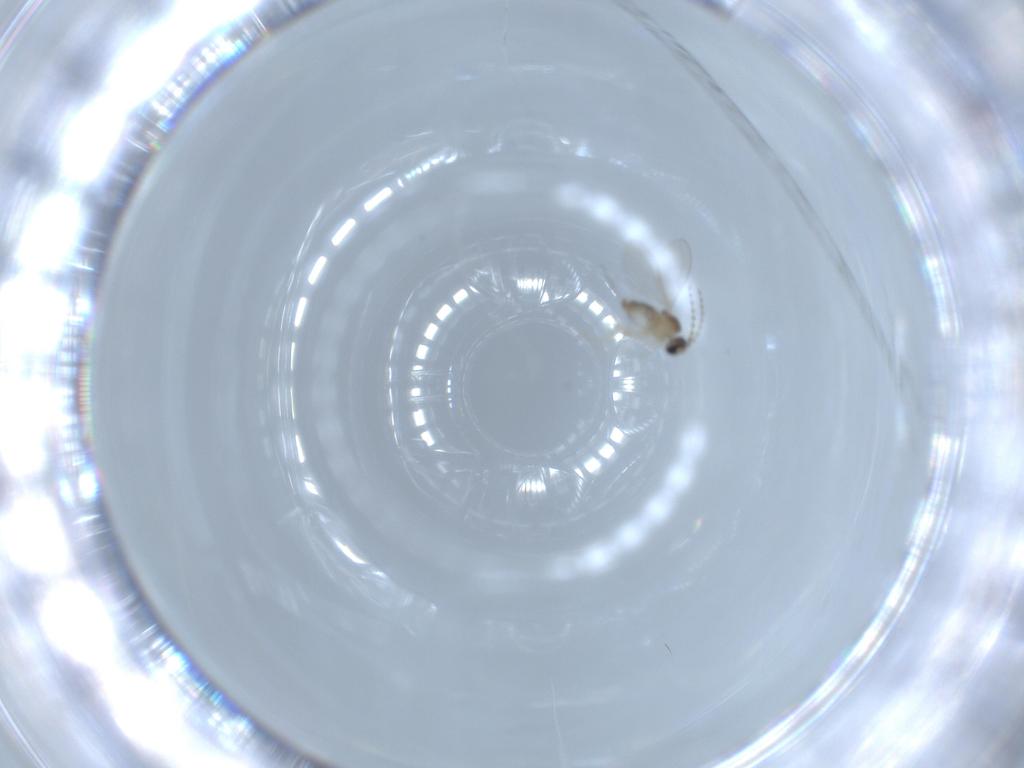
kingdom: Animalia
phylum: Arthropoda
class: Insecta
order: Diptera
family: Cecidomyiidae
